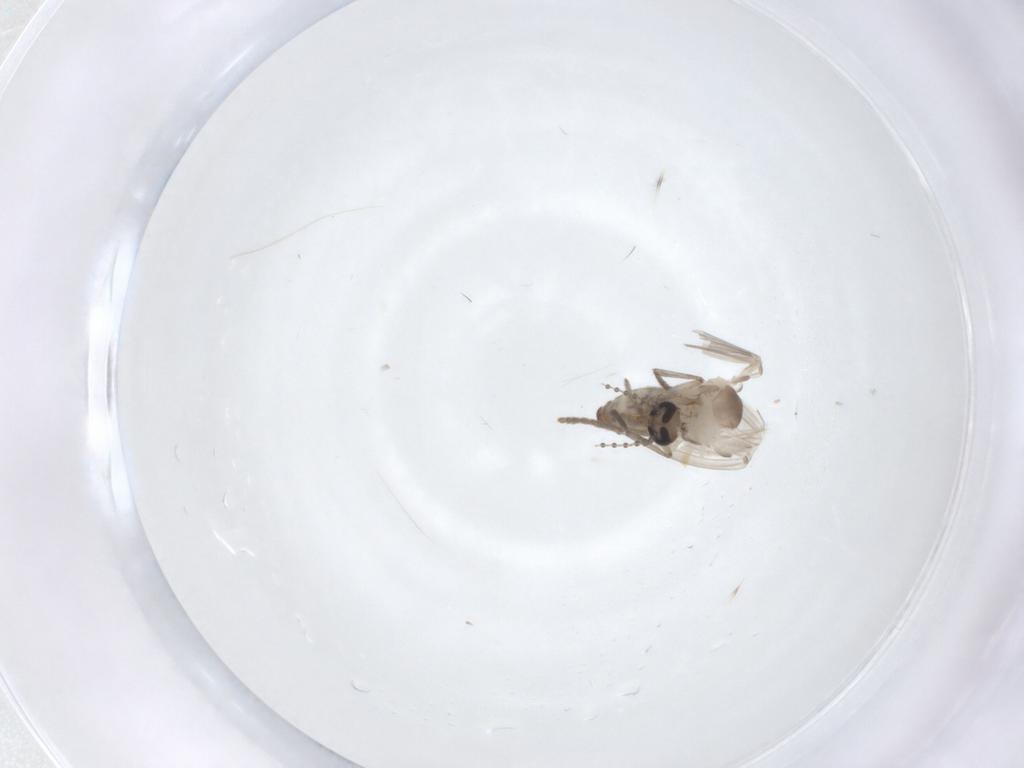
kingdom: Animalia
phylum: Arthropoda
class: Insecta
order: Diptera
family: Psychodidae
